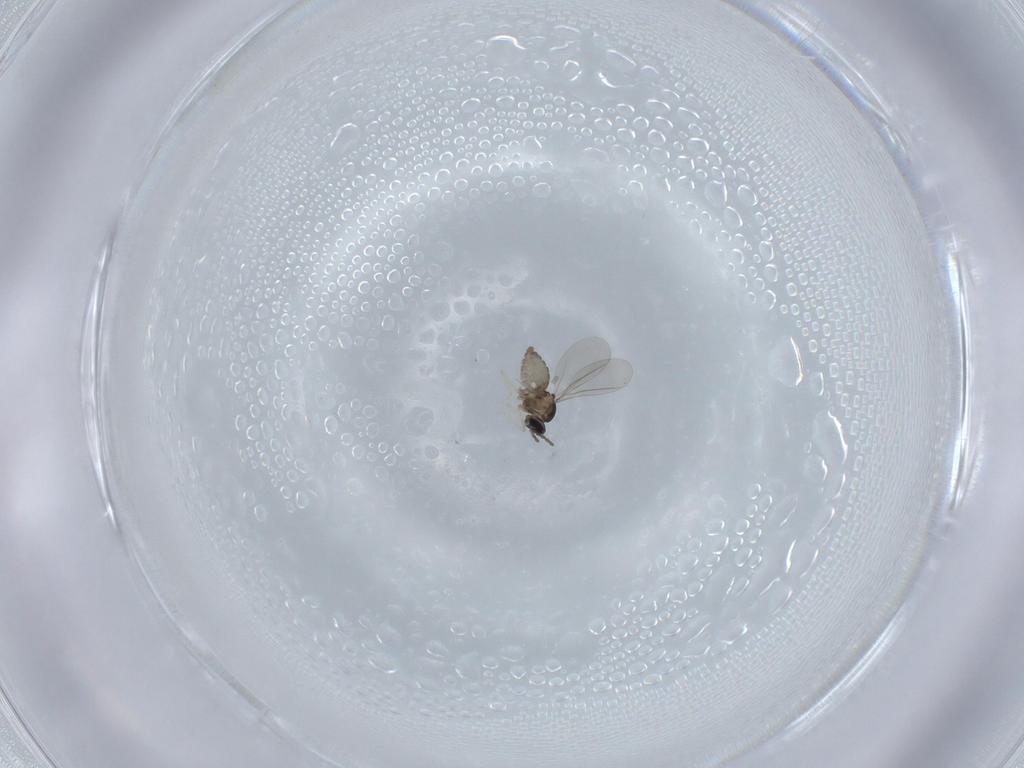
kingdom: Animalia
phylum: Arthropoda
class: Insecta
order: Diptera
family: Cecidomyiidae
